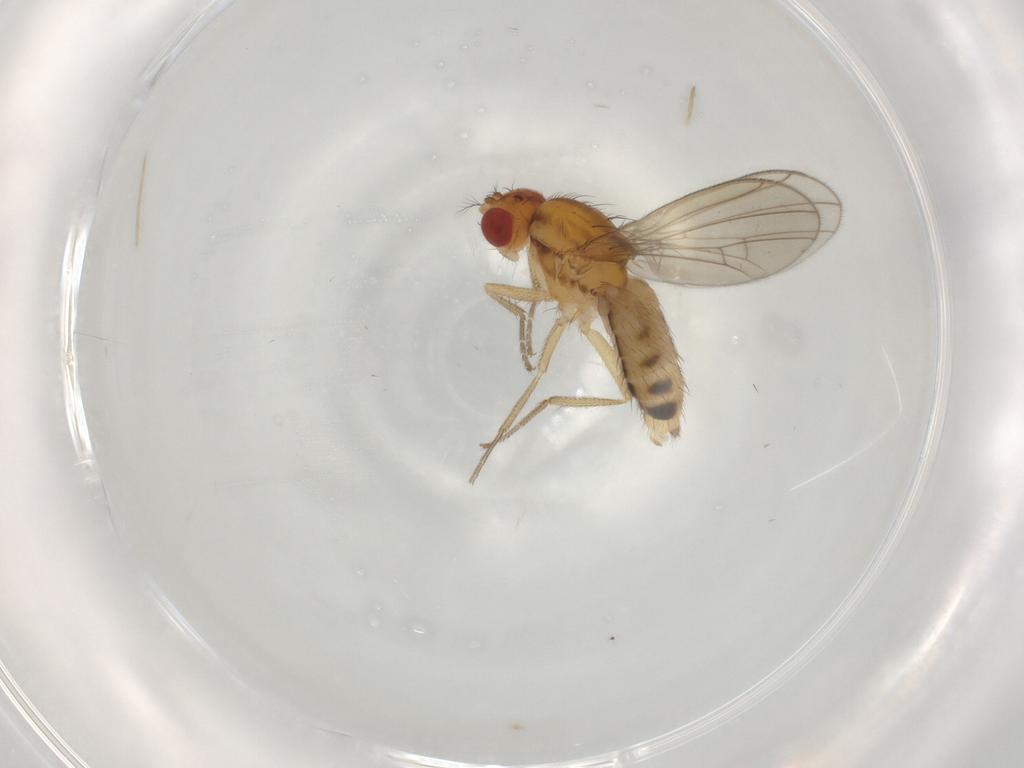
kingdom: Animalia
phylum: Arthropoda
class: Insecta
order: Diptera
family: Drosophilidae
